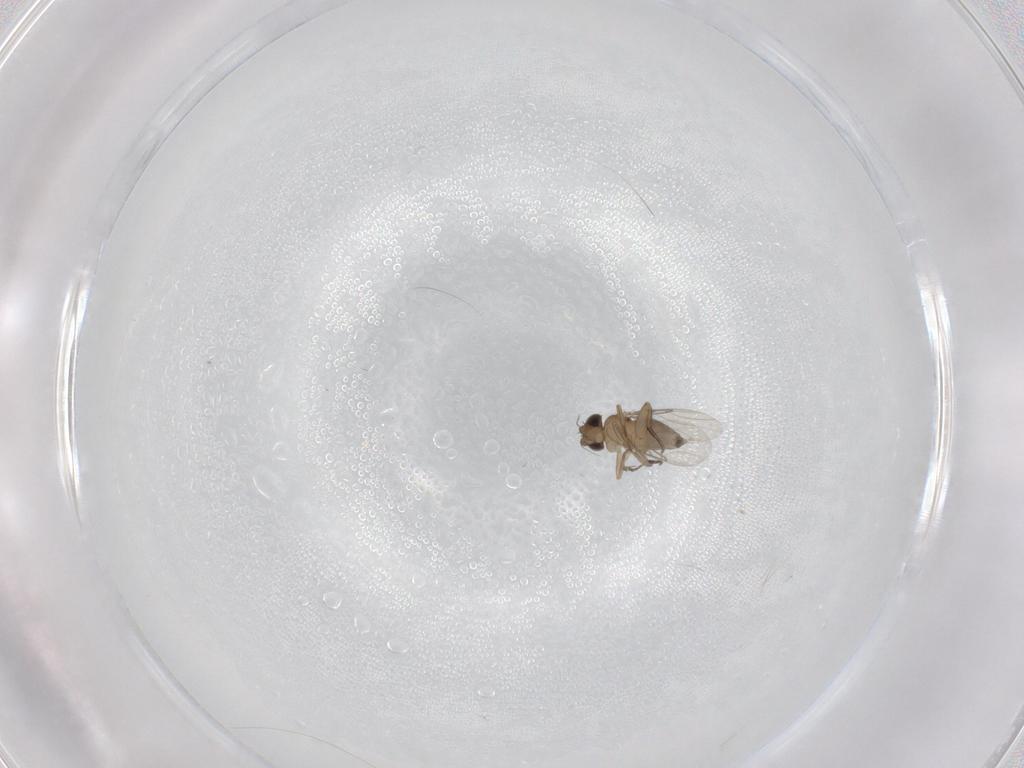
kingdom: Animalia
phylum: Arthropoda
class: Insecta
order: Diptera
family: Phoridae
